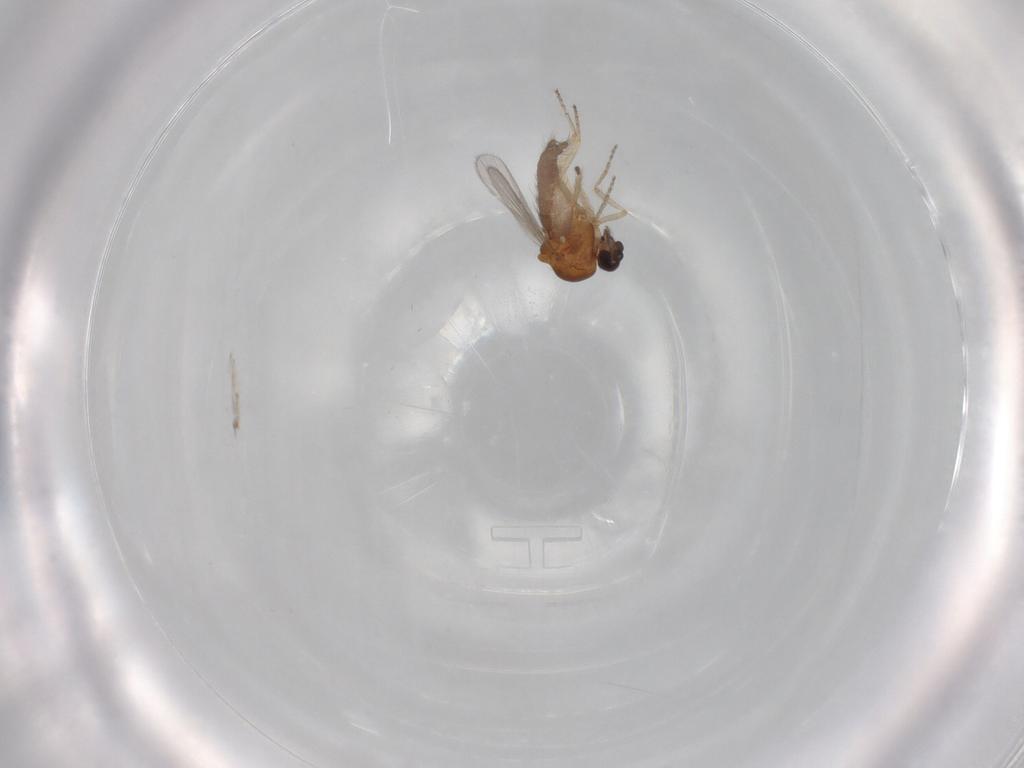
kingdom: Animalia
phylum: Arthropoda
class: Insecta
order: Diptera
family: Ceratopogonidae
